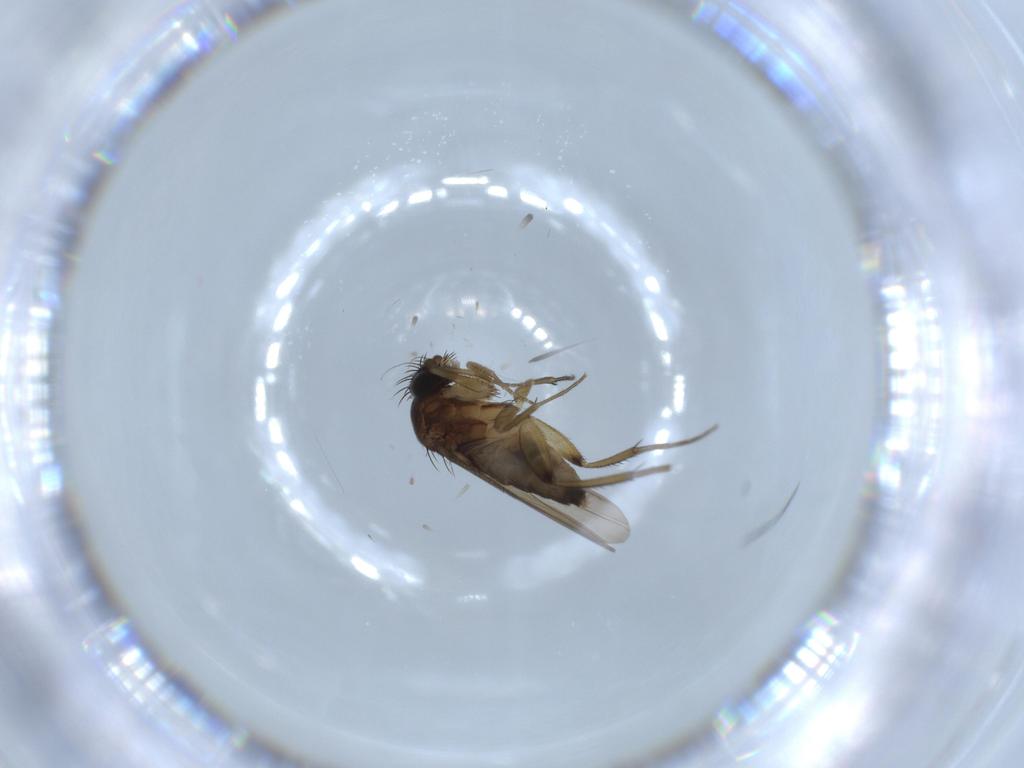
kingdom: Animalia
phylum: Arthropoda
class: Insecta
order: Diptera
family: Phoridae
